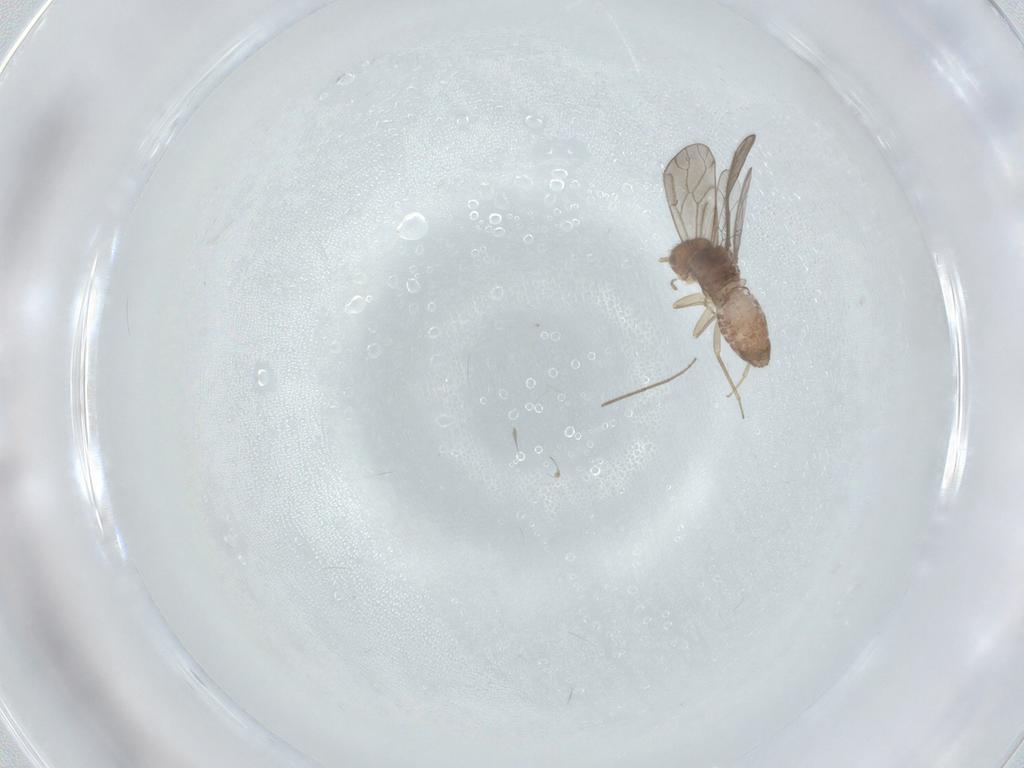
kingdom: Animalia
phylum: Arthropoda
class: Insecta
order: Psocodea
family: Ectopsocidae
